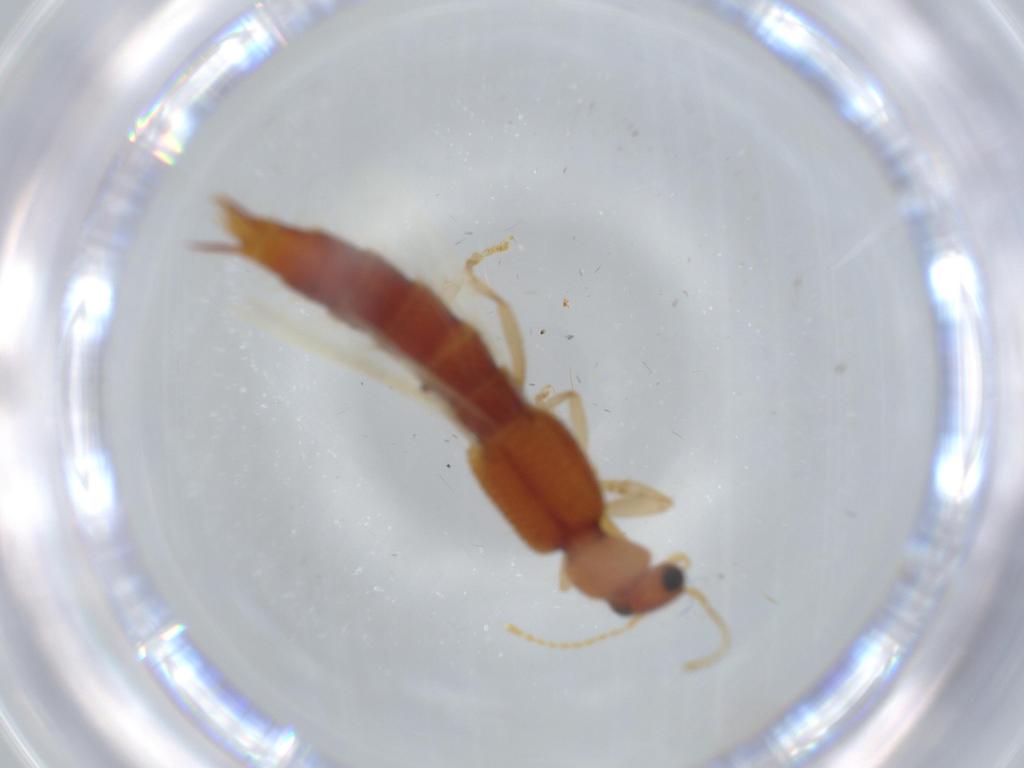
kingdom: Animalia
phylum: Arthropoda
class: Insecta
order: Coleoptera
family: Staphylinidae
